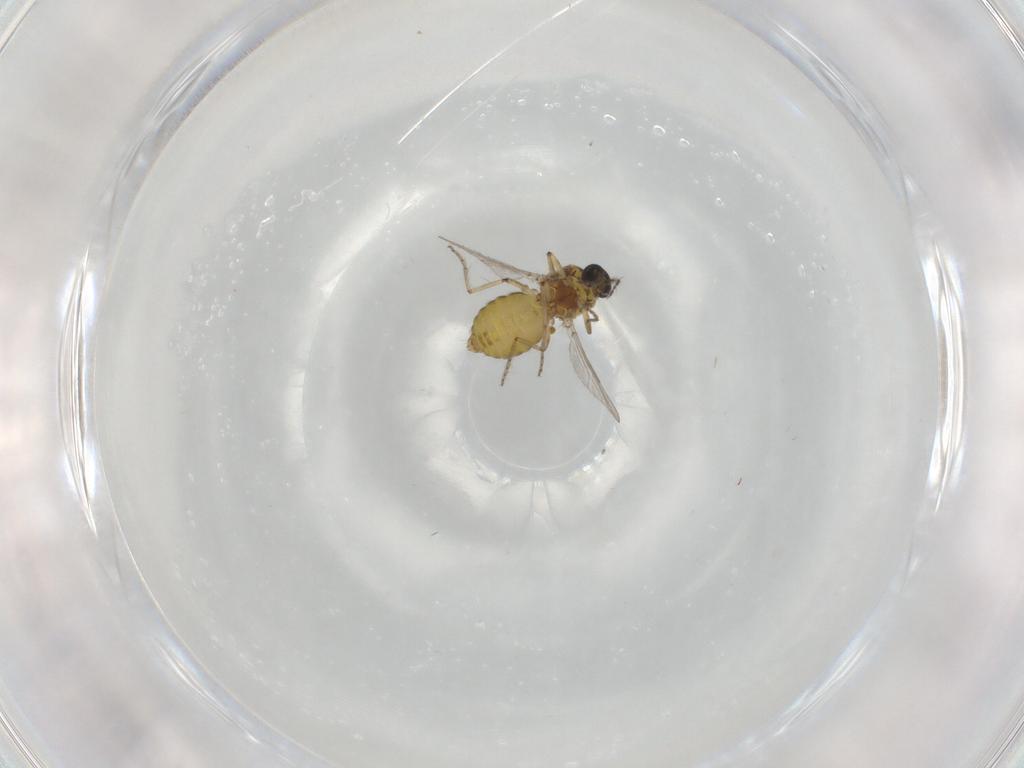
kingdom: Animalia
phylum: Arthropoda
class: Insecta
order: Diptera
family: Ceratopogonidae
